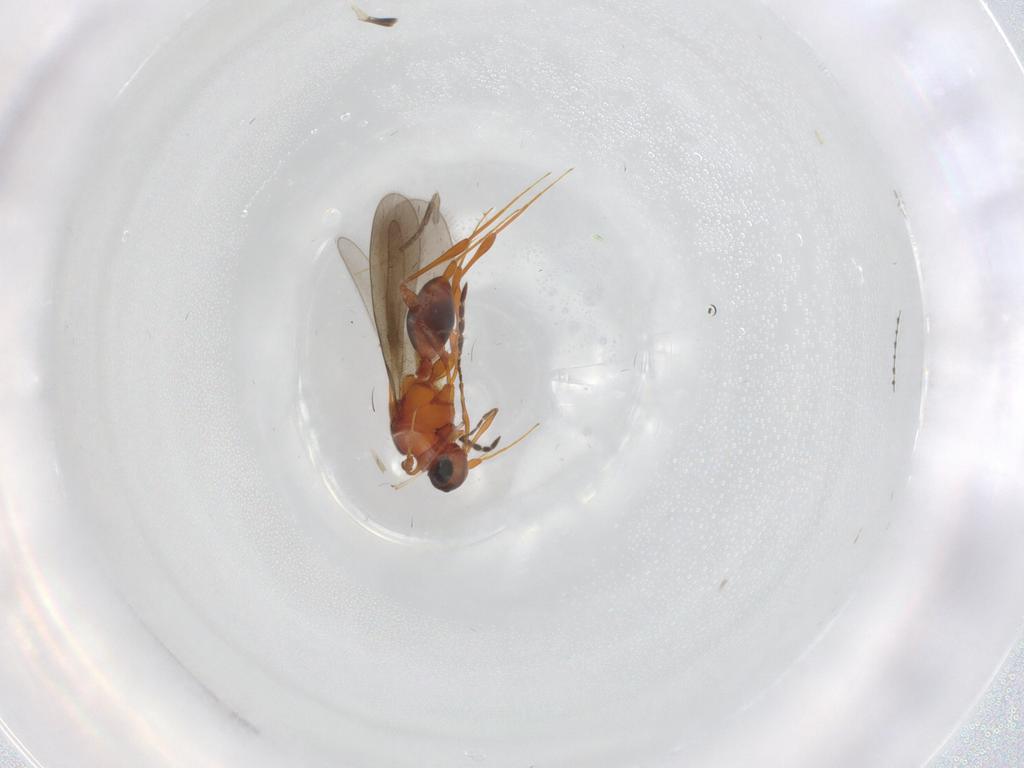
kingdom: Animalia
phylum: Arthropoda
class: Insecta
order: Hymenoptera
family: Platygastridae
